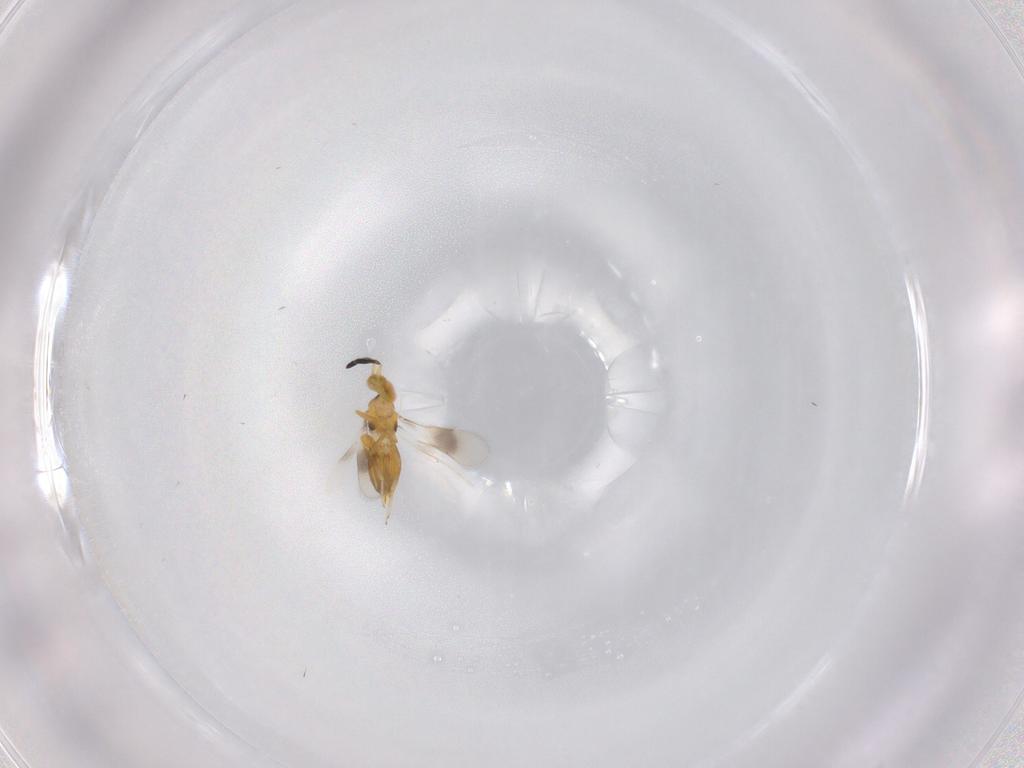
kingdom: Animalia
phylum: Arthropoda
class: Insecta
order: Hymenoptera
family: Encyrtidae
